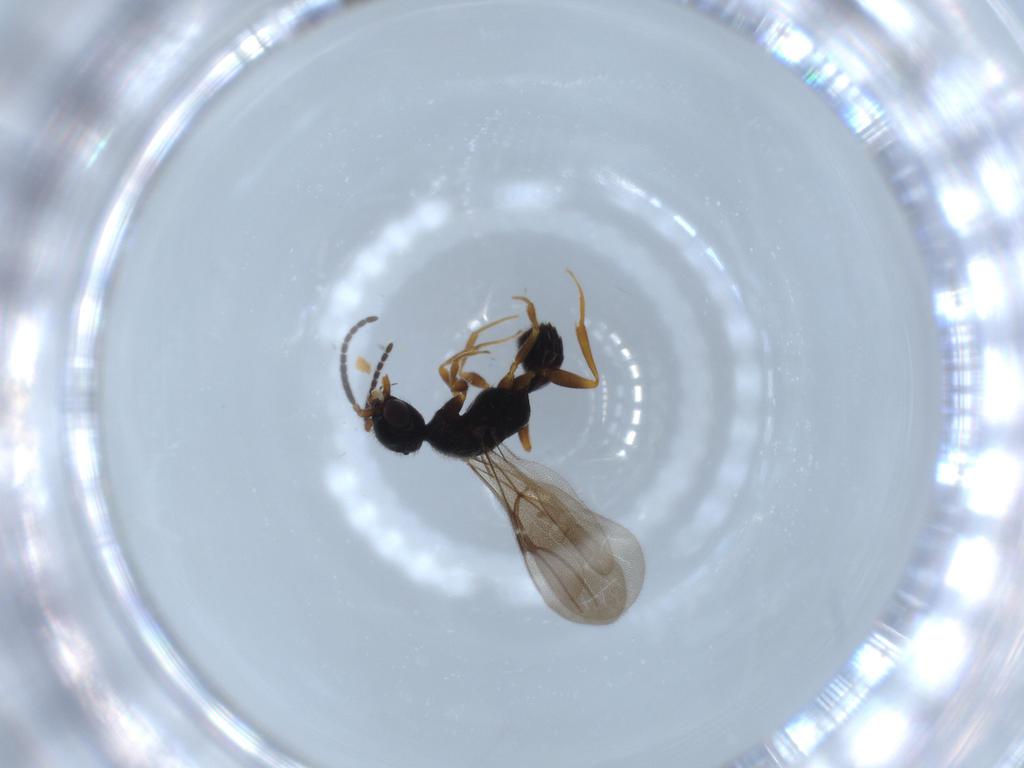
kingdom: Animalia
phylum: Arthropoda
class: Insecta
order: Hymenoptera
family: Bethylidae
